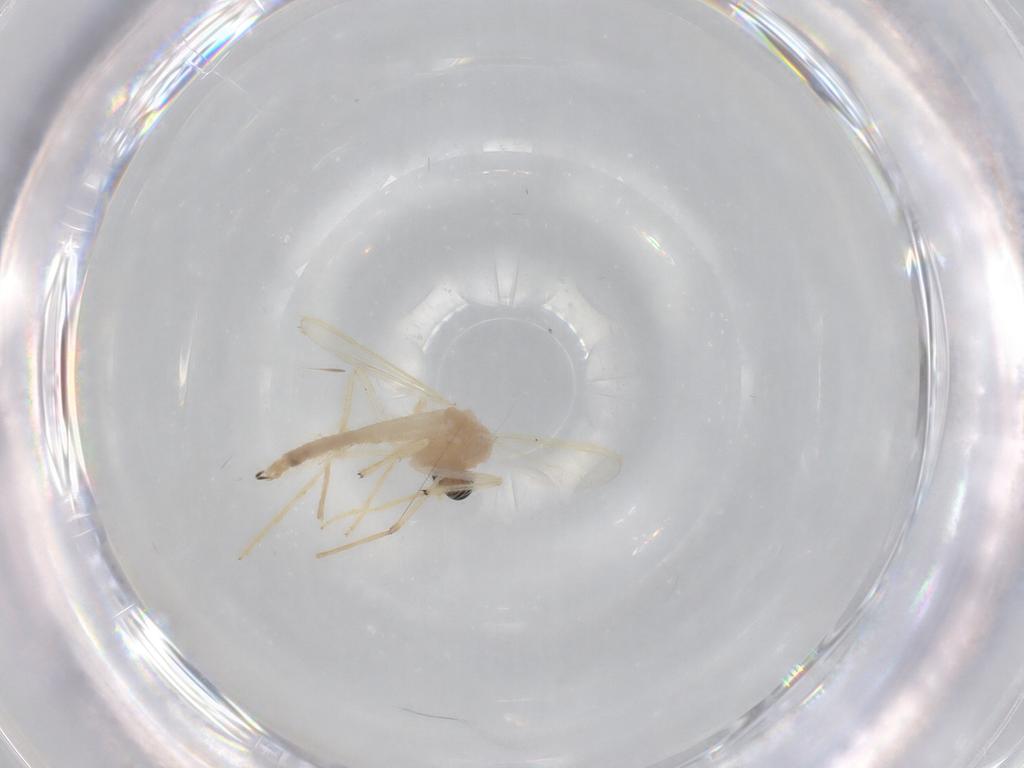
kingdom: Animalia
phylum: Arthropoda
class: Insecta
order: Diptera
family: Chironomidae
